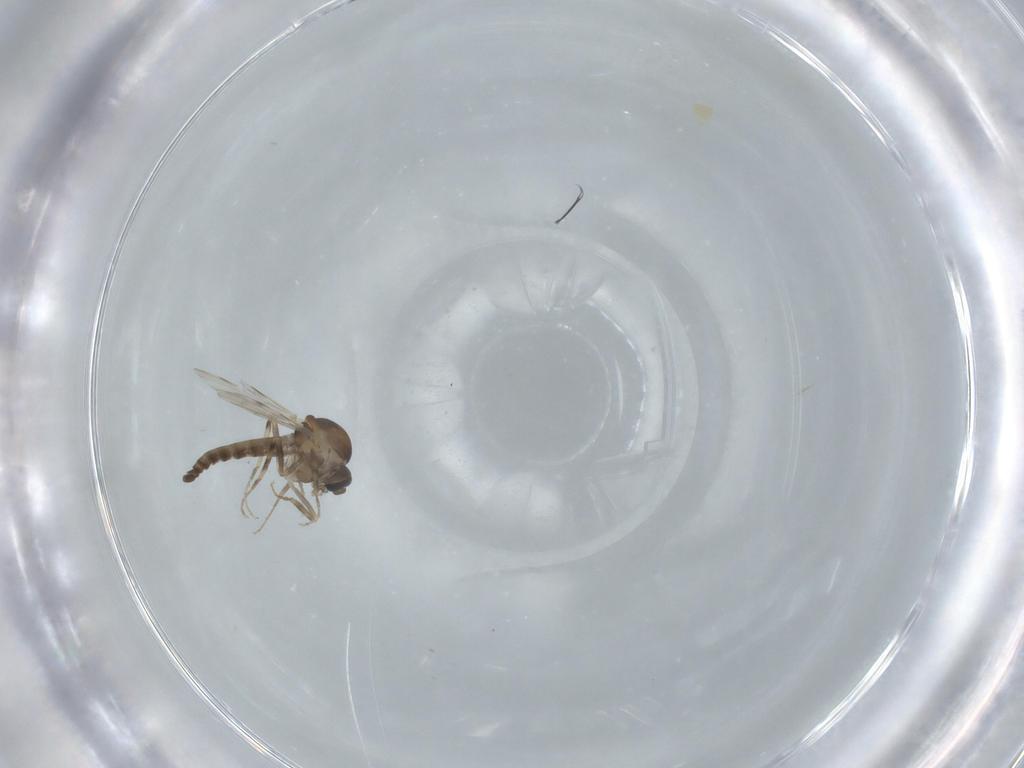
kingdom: Animalia
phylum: Arthropoda
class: Insecta
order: Diptera
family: Ceratopogonidae
